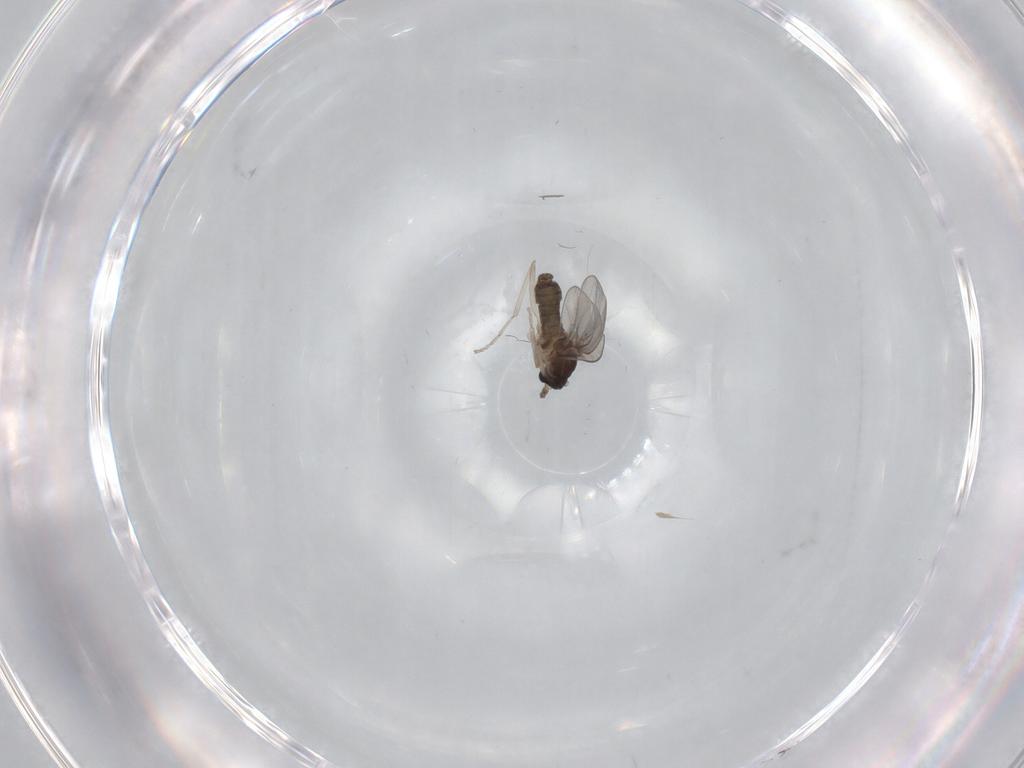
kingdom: Animalia
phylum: Arthropoda
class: Insecta
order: Diptera
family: Cecidomyiidae
